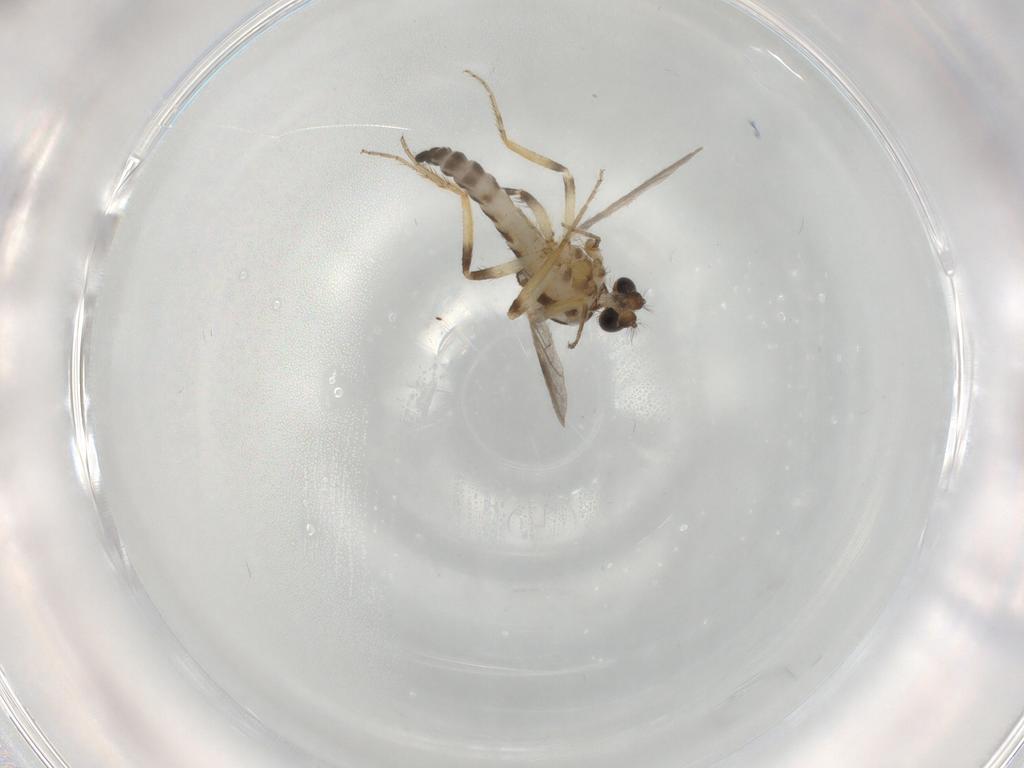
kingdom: Animalia
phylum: Arthropoda
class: Insecta
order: Diptera
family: Ceratopogonidae
